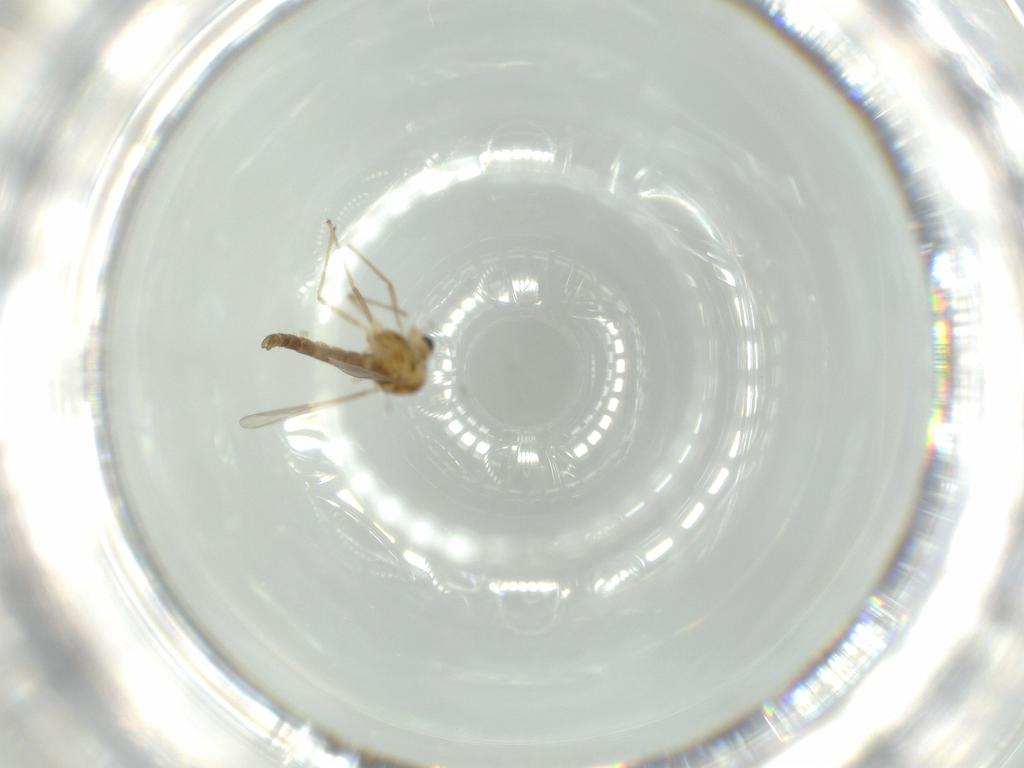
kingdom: Animalia
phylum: Arthropoda
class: Insecta
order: Diptera
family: Chironomidae
